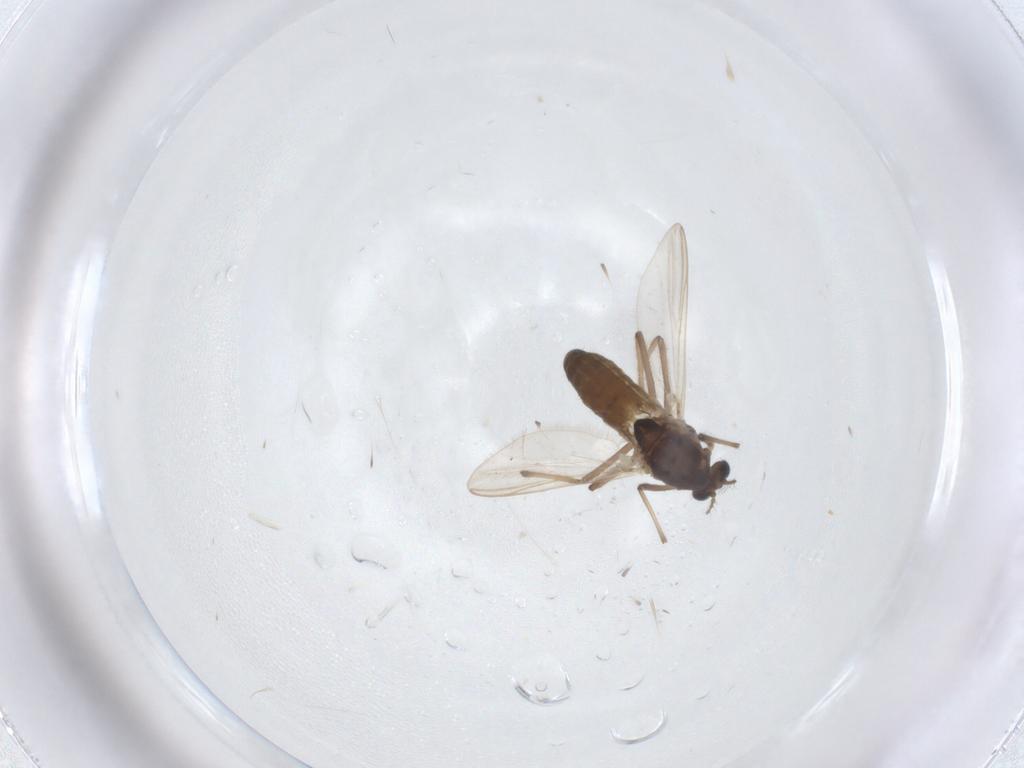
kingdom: Animalia
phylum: Arthropoda
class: Insecta
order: Diptera
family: Chironomidae
